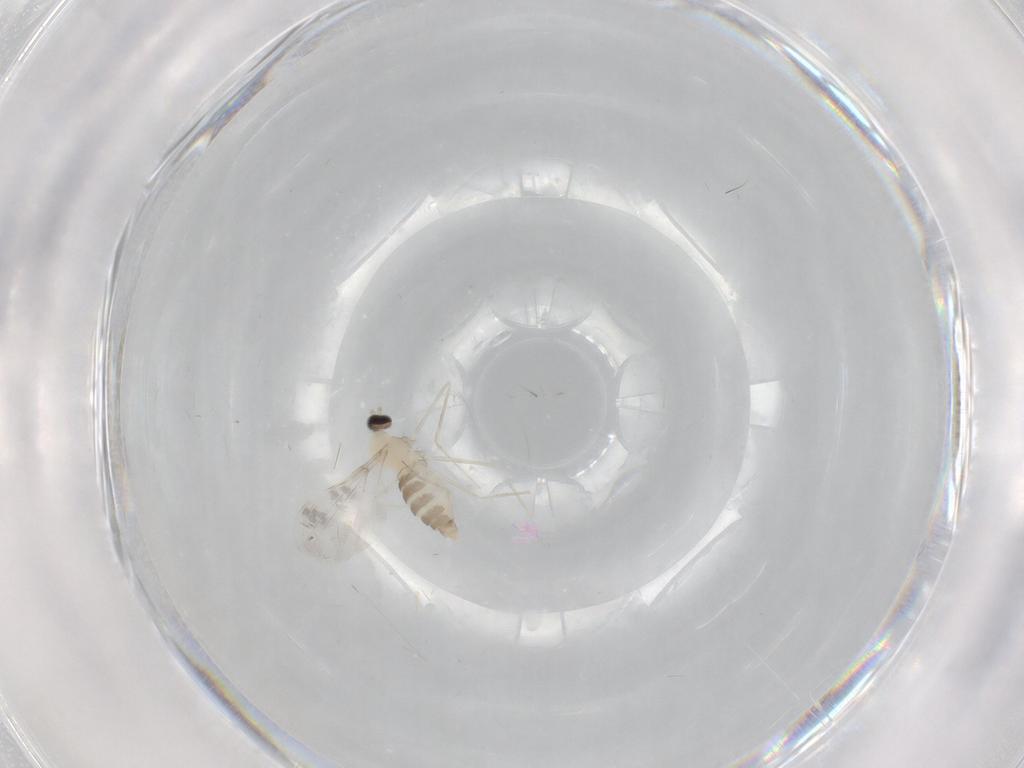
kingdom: Animalia
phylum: Arthropoda
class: Insecta
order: Diptera
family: Cecidomyiidae
